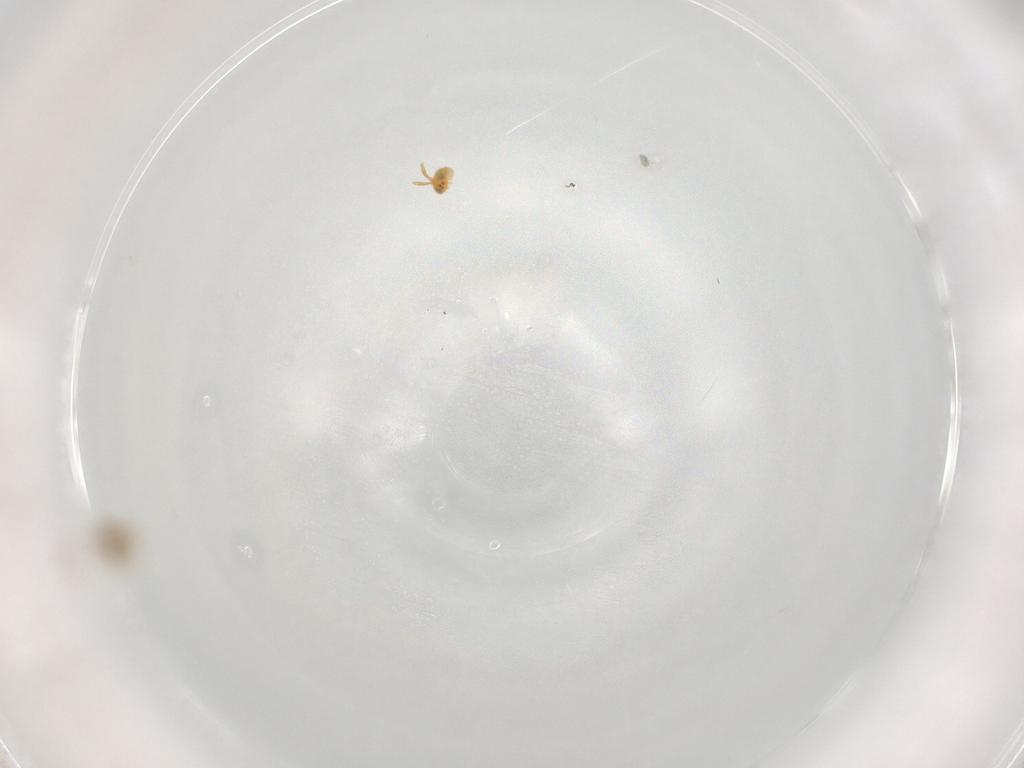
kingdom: Animalia
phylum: Arthropoda
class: Insecta
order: Hymenoptera
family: Aphelinidae
